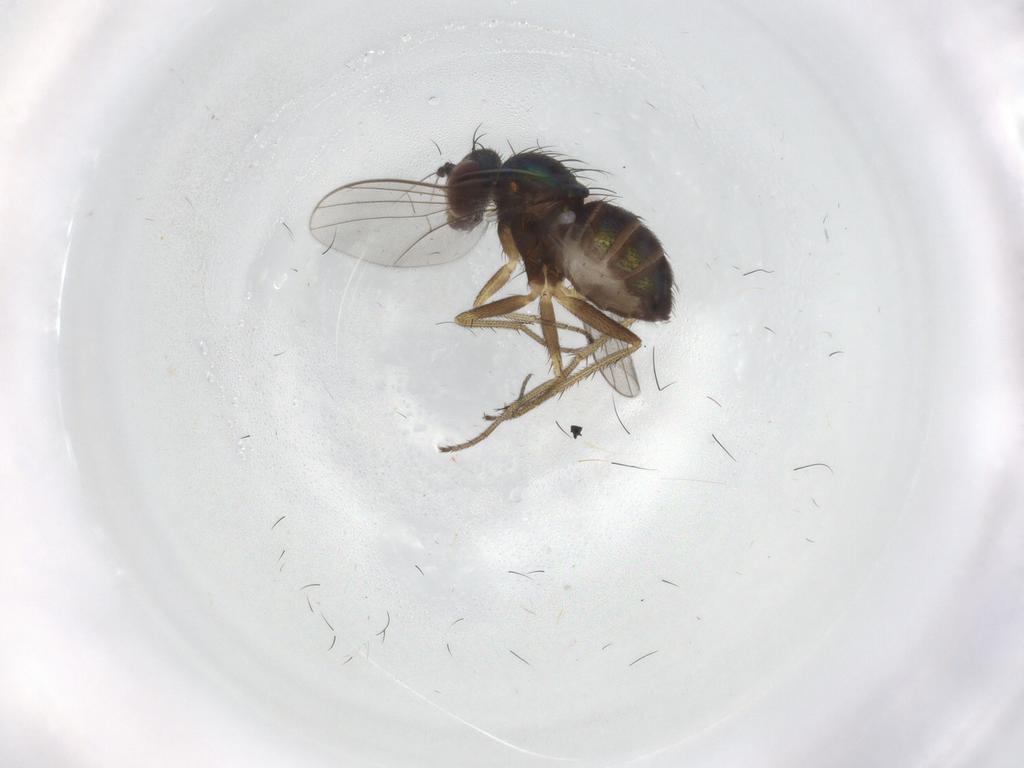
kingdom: Animalia
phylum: Arthropoda
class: Insecta
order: Diptera
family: Sciaridae
